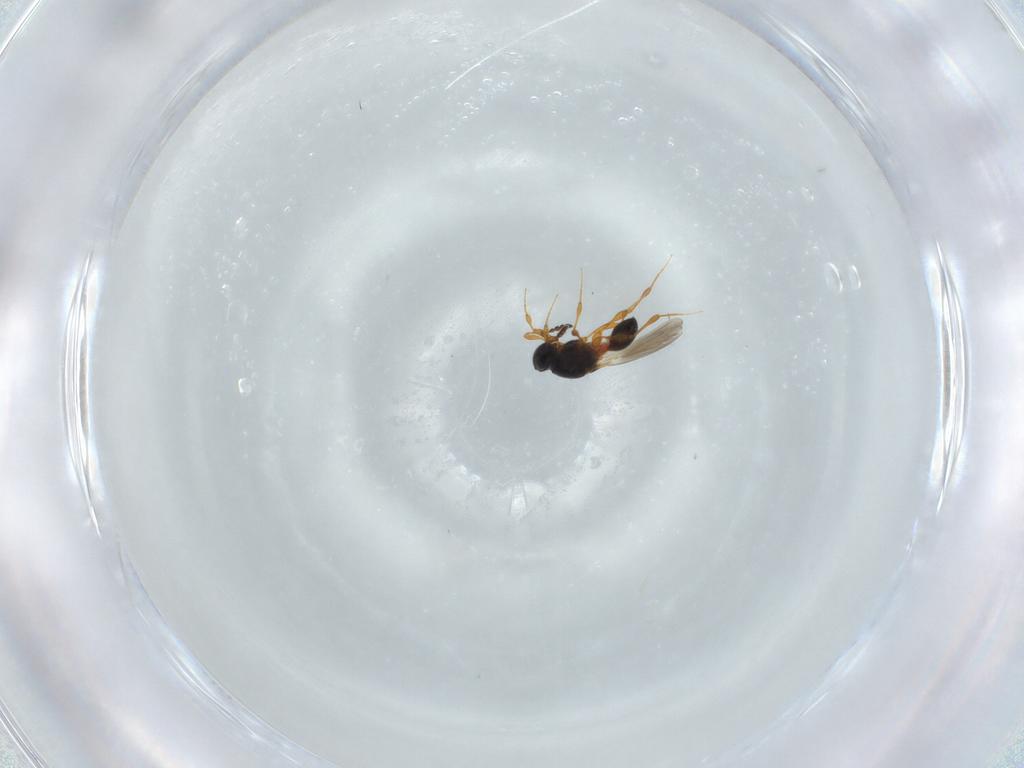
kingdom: Animalia
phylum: Arthropoda
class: Insecta
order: Hymenoptera
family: Platygastridae
